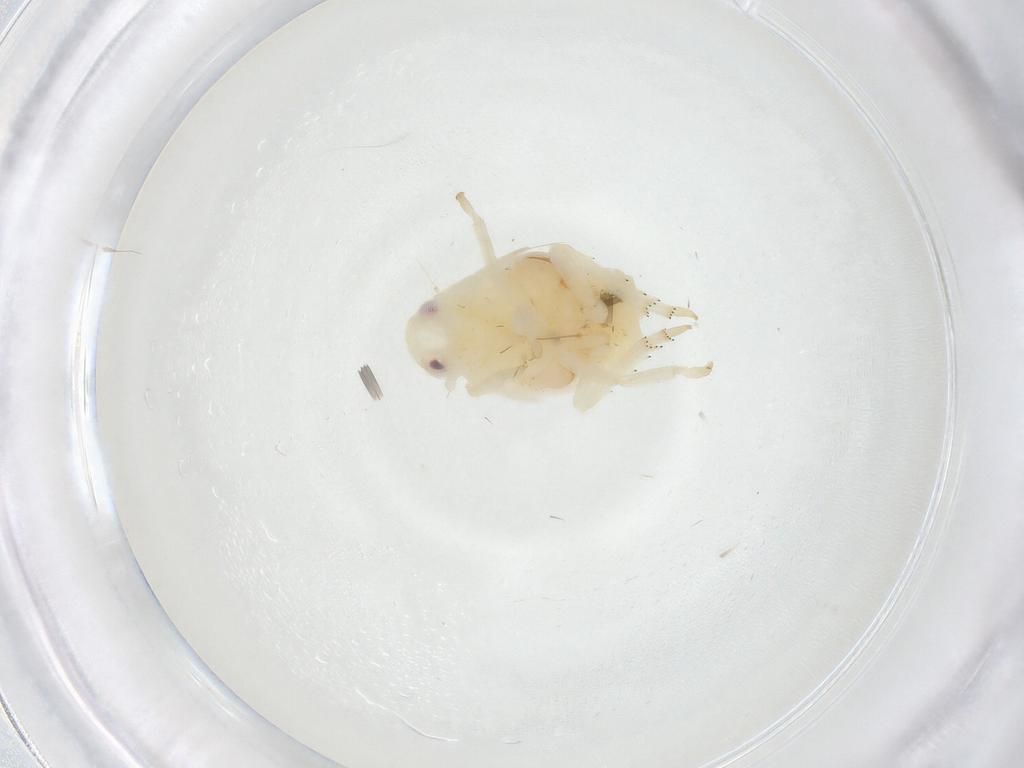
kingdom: Animalia
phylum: Arthropoda
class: Insecta
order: Hemiptera
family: Flatidae
